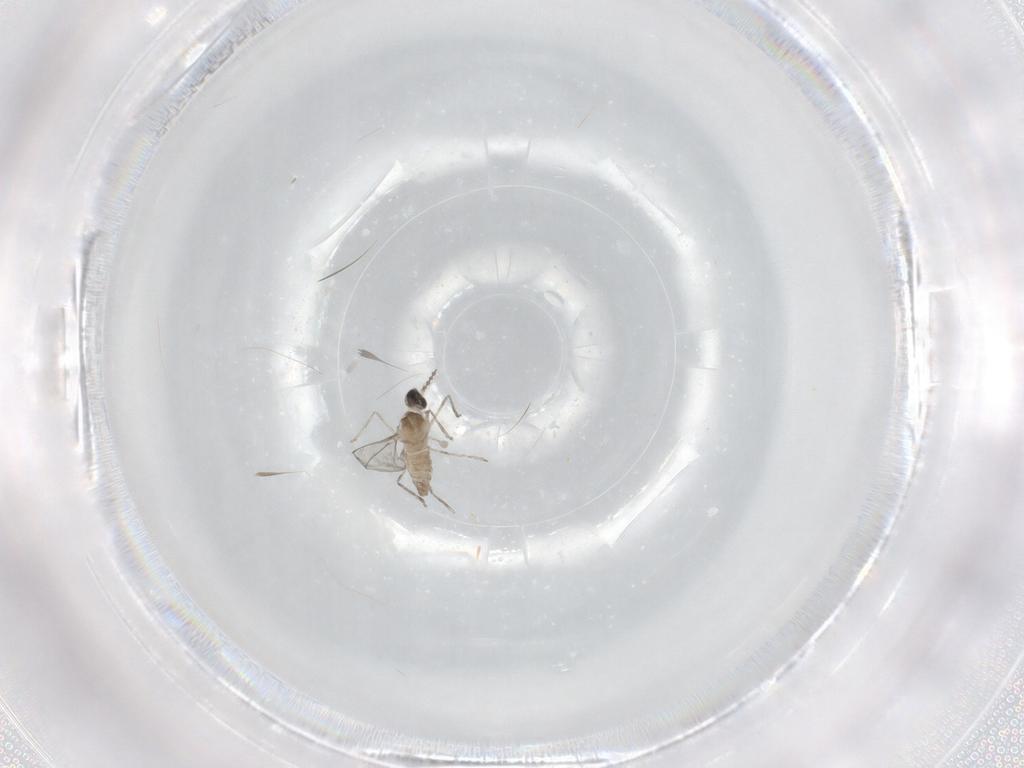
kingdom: Animalia
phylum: Arthropoda
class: Insecta
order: Diptera
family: Cecidomyiidae
